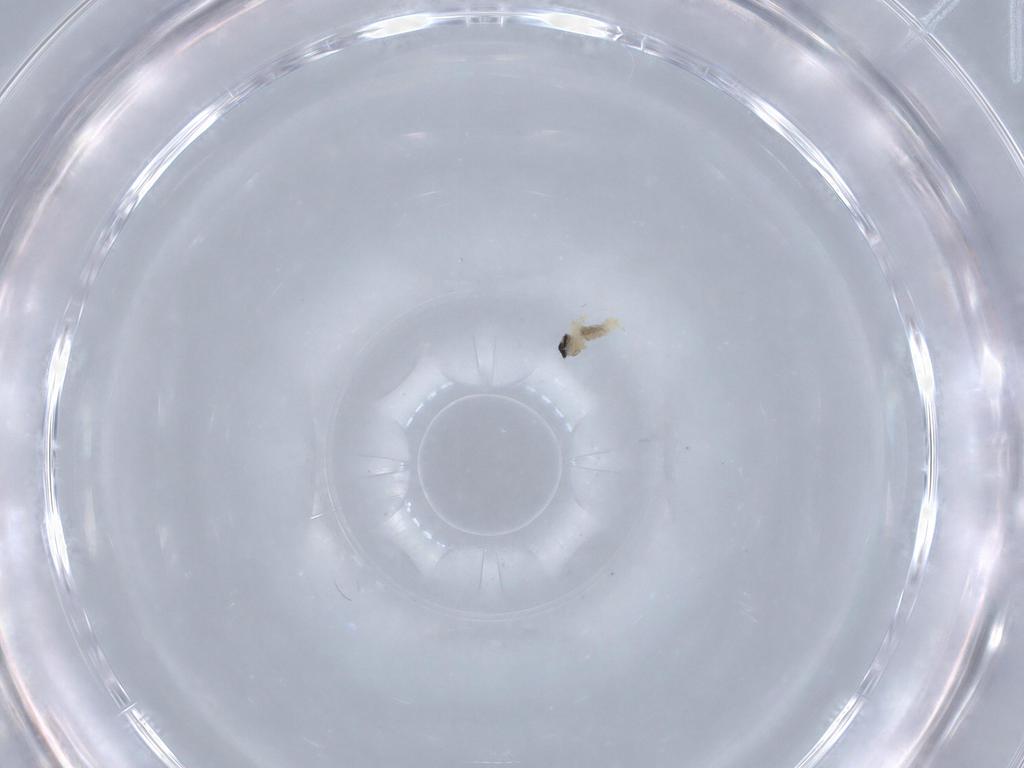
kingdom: Animalia
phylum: Arthropoda
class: Insecta
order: Diptera
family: Cecidomyiidae
